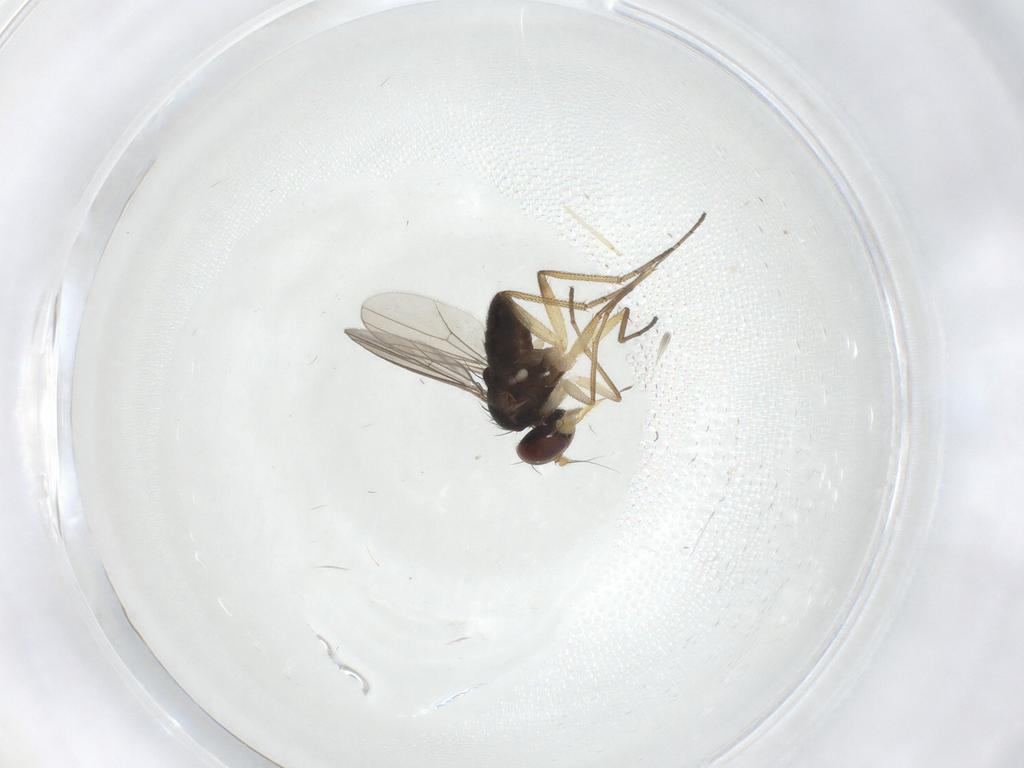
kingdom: Animalia
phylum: Arthropoda
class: Insecta
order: Diptera
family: Dolichopodidae
